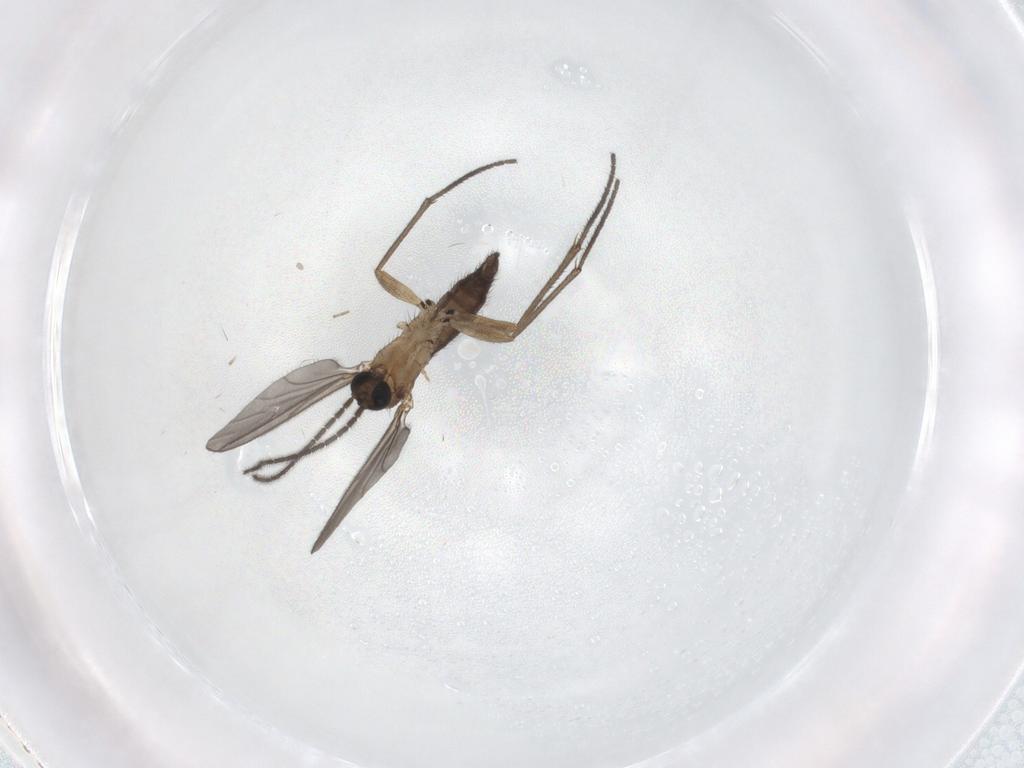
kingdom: Animalia
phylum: Arthropoda
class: Insecta
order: Diptera
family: Sciaridae
